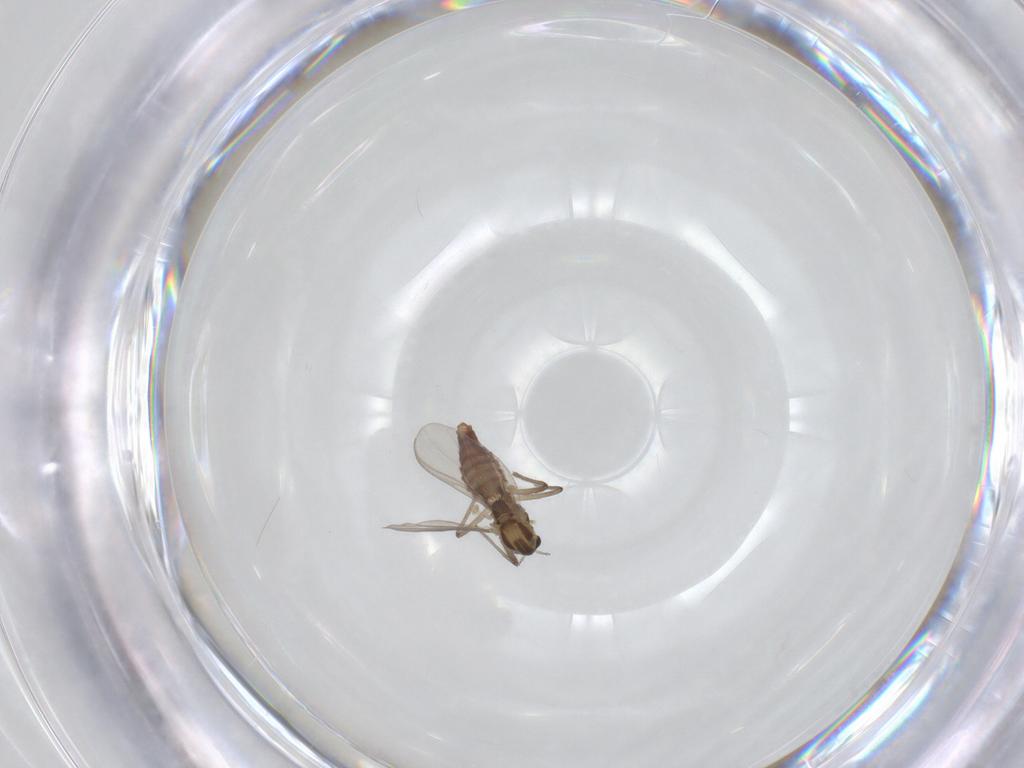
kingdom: Animalia
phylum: Arthropoda
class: Insecta
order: Diptera
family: Chironomidae
